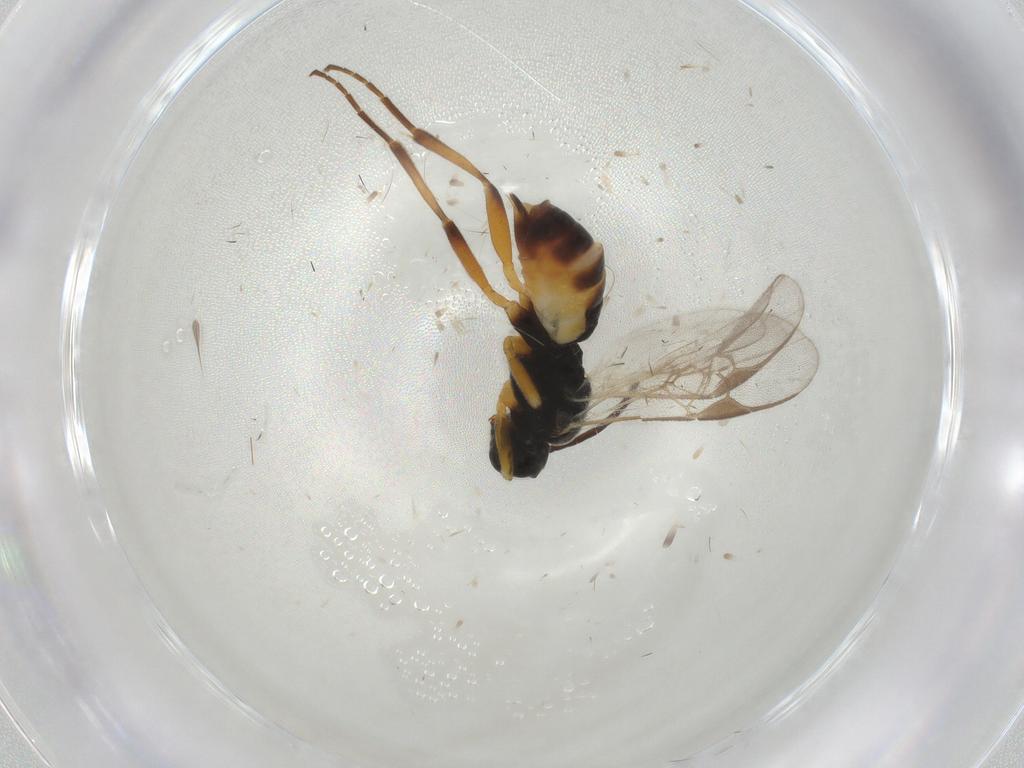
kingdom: Animalia
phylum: Arthropoda
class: Insecta
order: Hymenoptera
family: Braconidae
